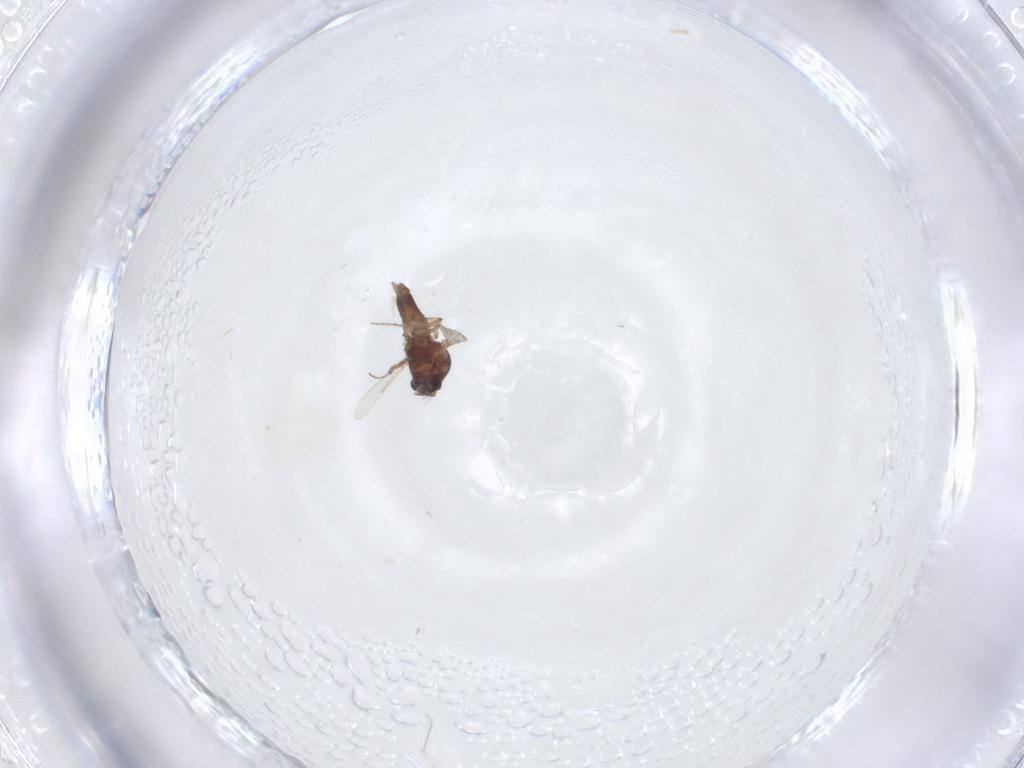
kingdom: Animalia
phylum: Arthropoda
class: Insecta
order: Diptera
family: Ceratopogonidae
